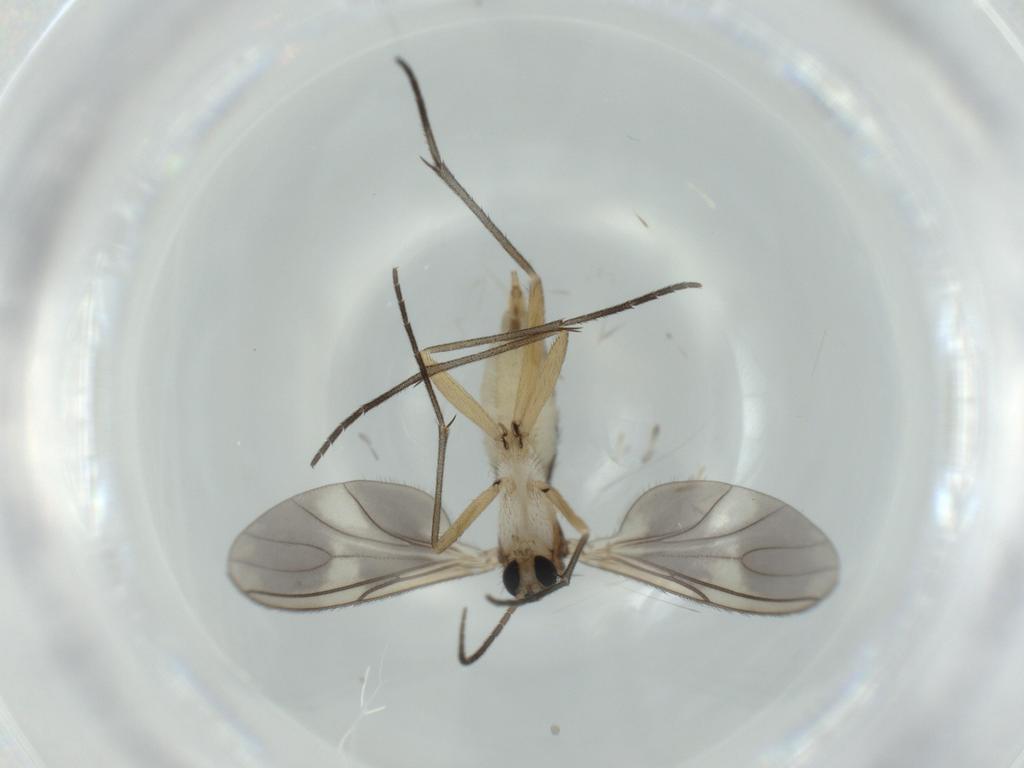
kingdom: Animalia
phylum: Arthropoda
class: Insecta
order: Diptera
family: Sciaridae
